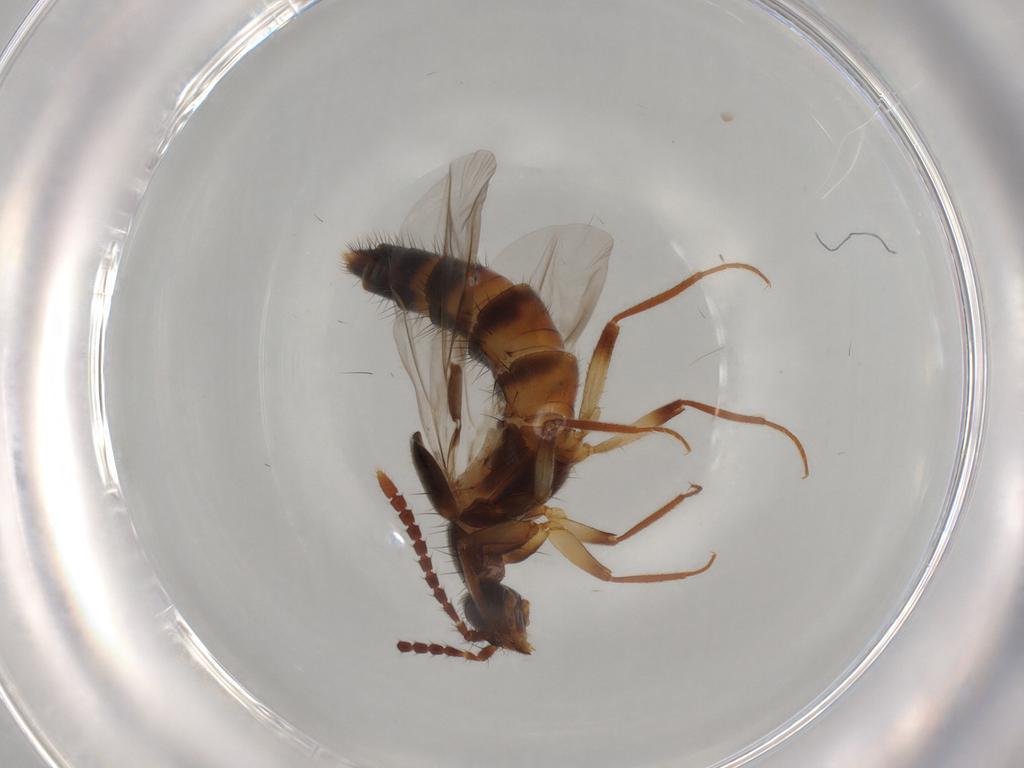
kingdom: Animalia
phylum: Arthropoda
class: Insecta
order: Coleoptera
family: Staphylinidae
